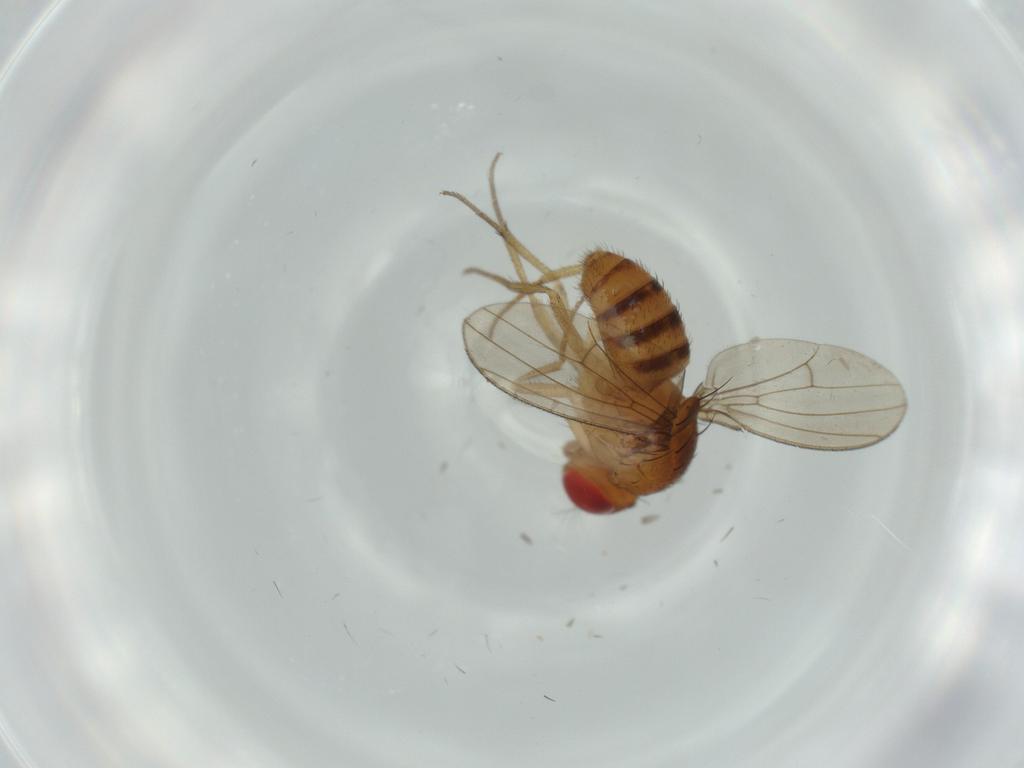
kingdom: Animalia
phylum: Arthropoda
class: Insecta
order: Diptera
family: Drosophilidae
